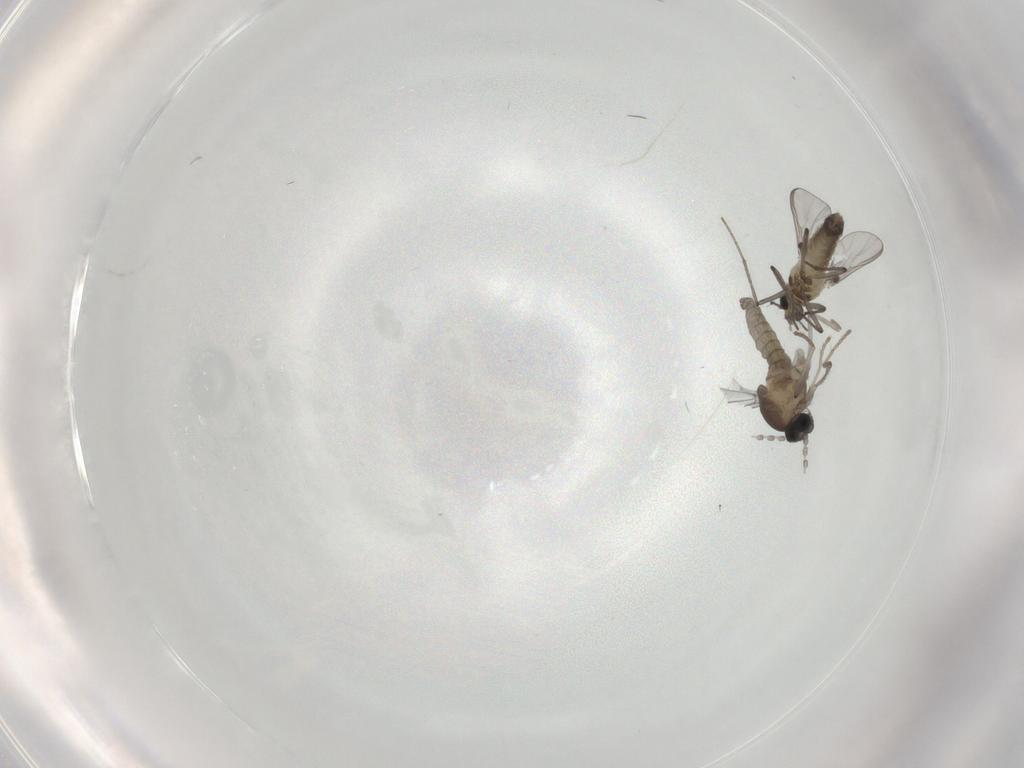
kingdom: Animalia
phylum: Arthropoda
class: Insecta
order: Diptera
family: Cecidomyiidae
